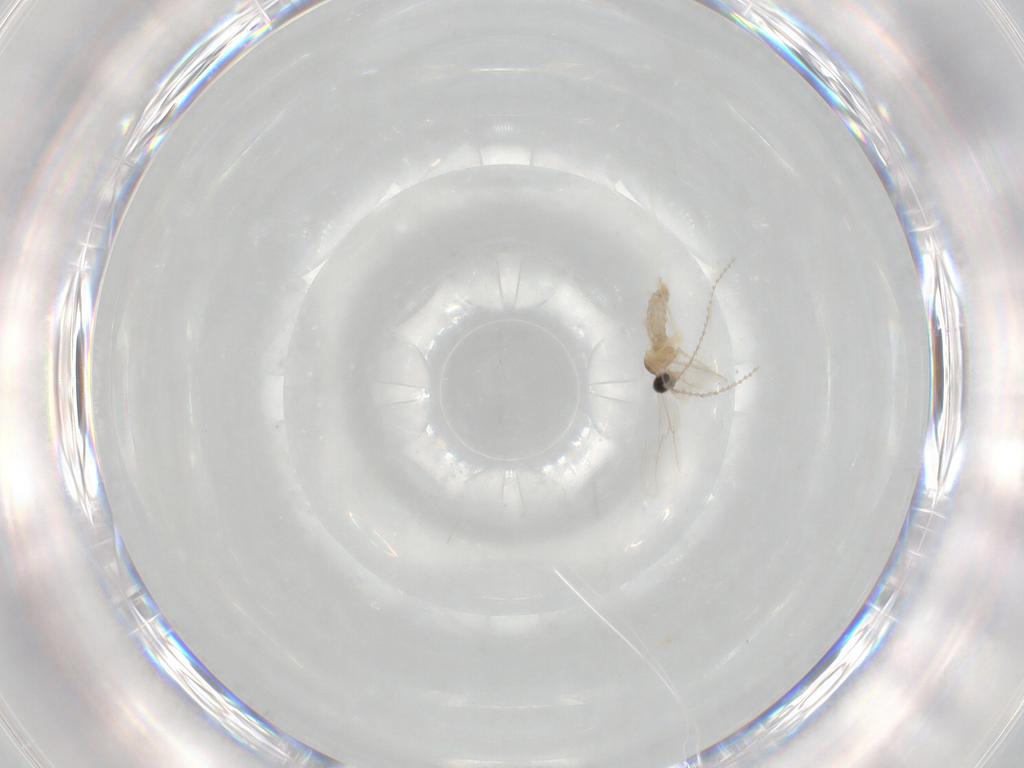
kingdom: Animalia
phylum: Arthropoda
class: Insecta
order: Diptera
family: Cecidomyiidae
